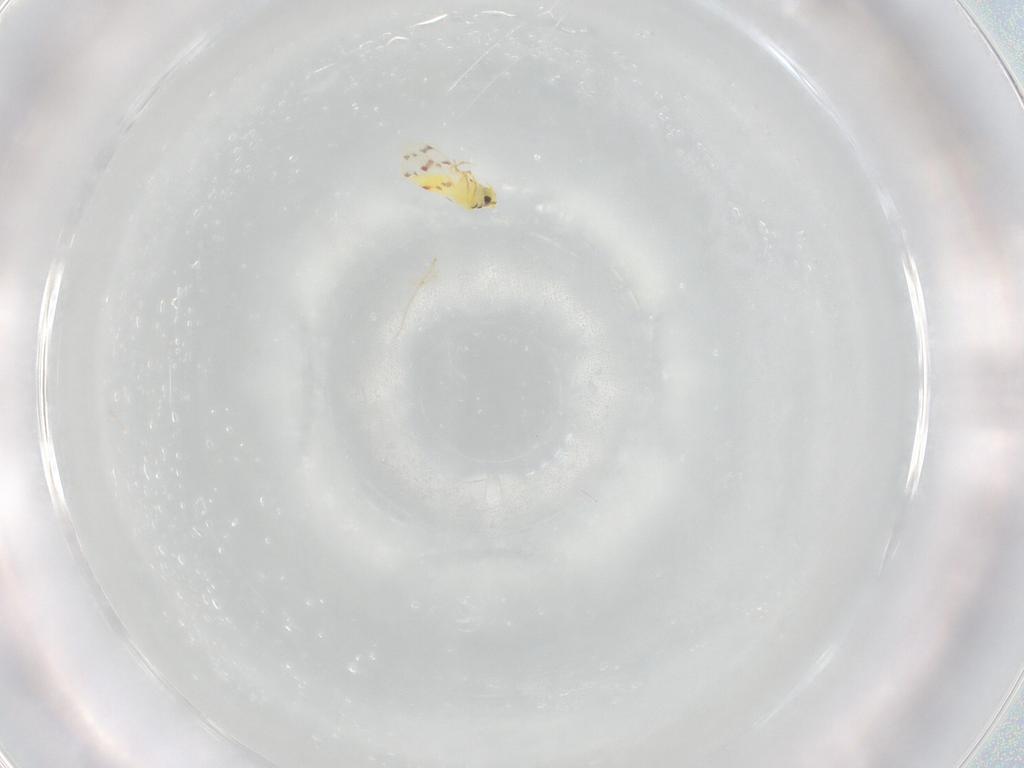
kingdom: Animalia
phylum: Arthropoda
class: Insecta
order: Hemiptera
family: Aleyrodidae
